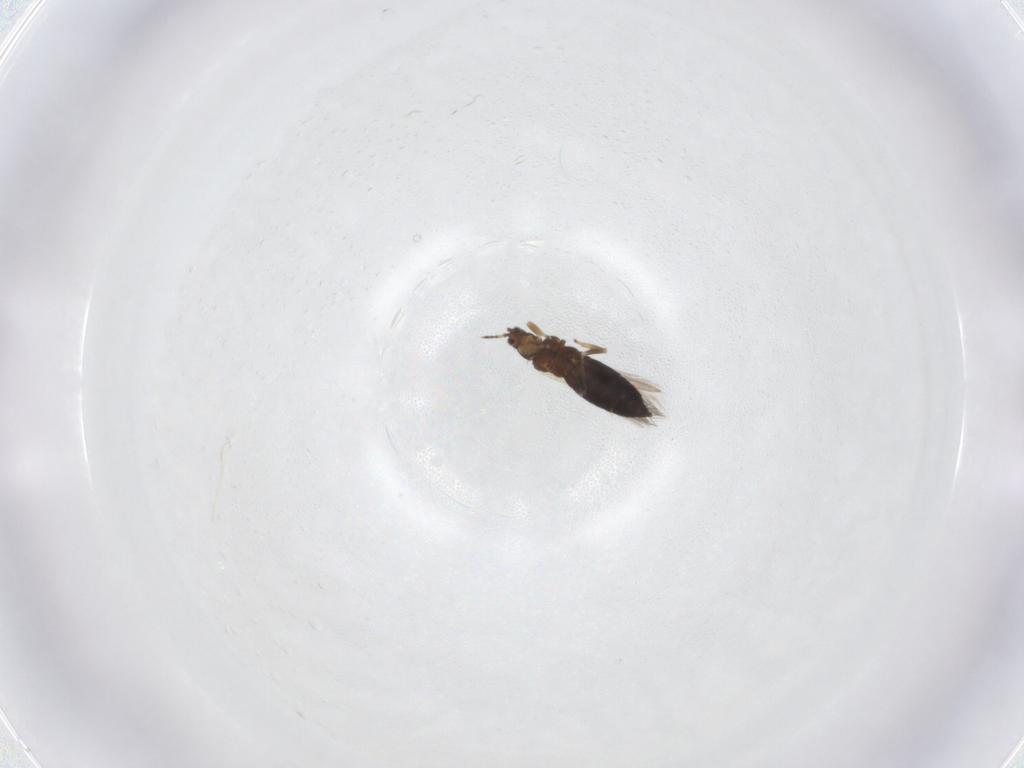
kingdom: Animalia
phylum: Arthropoda
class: Insecta
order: Thysanoptera
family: Thripidae
